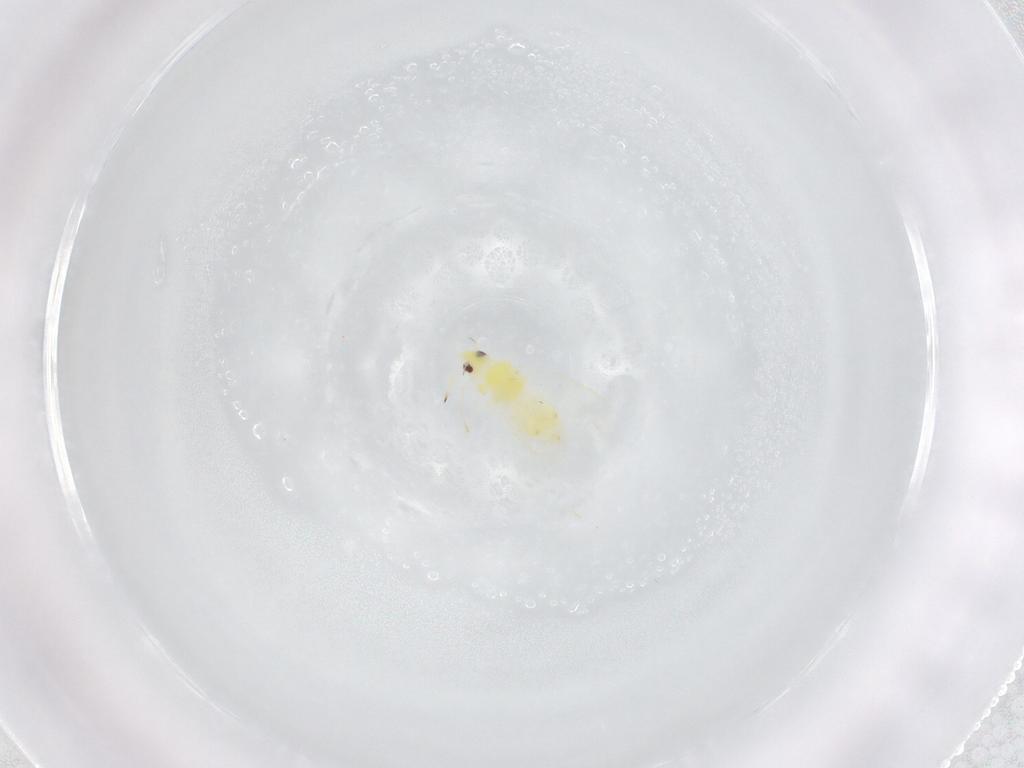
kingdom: Animalia
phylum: Arthropoda
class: Insecta
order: Hemiptera
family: Aleyrodidae
